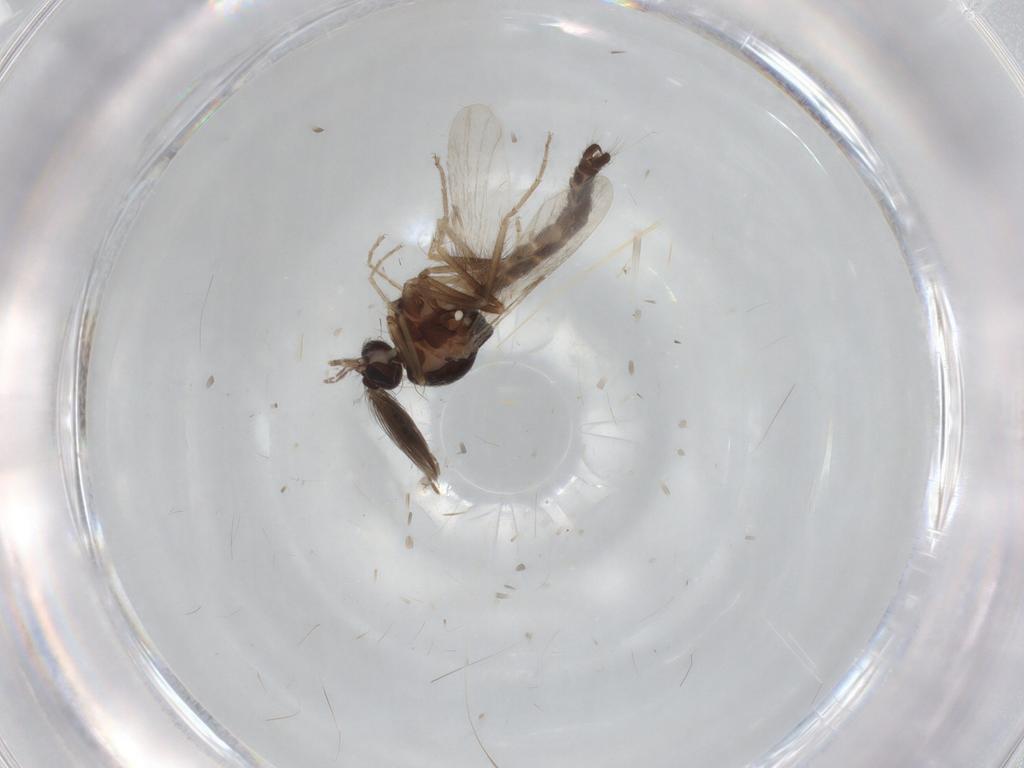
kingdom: Animalia
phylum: Arthropoda
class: Insecta
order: Diptera
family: Ceratopogonidae
